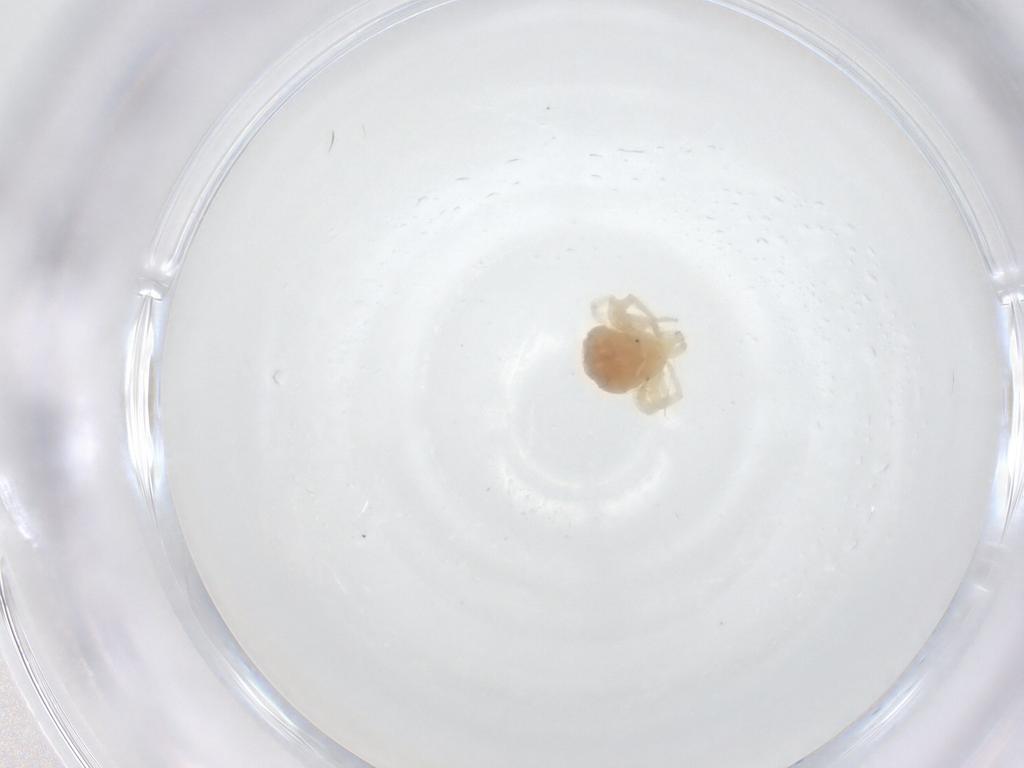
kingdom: Animalia
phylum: Arthropoda
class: Arachnida
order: Trombidiformes
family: Anystidae
